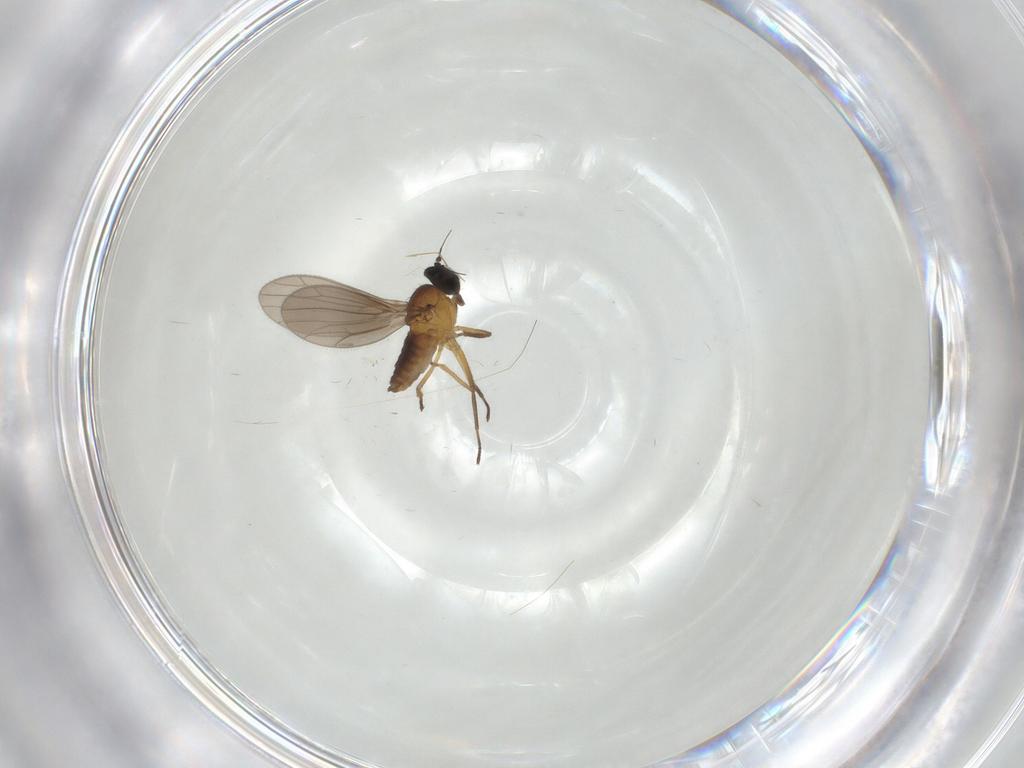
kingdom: Animalia
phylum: Arthropoda
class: Insecta
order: Diptera
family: Empididae
